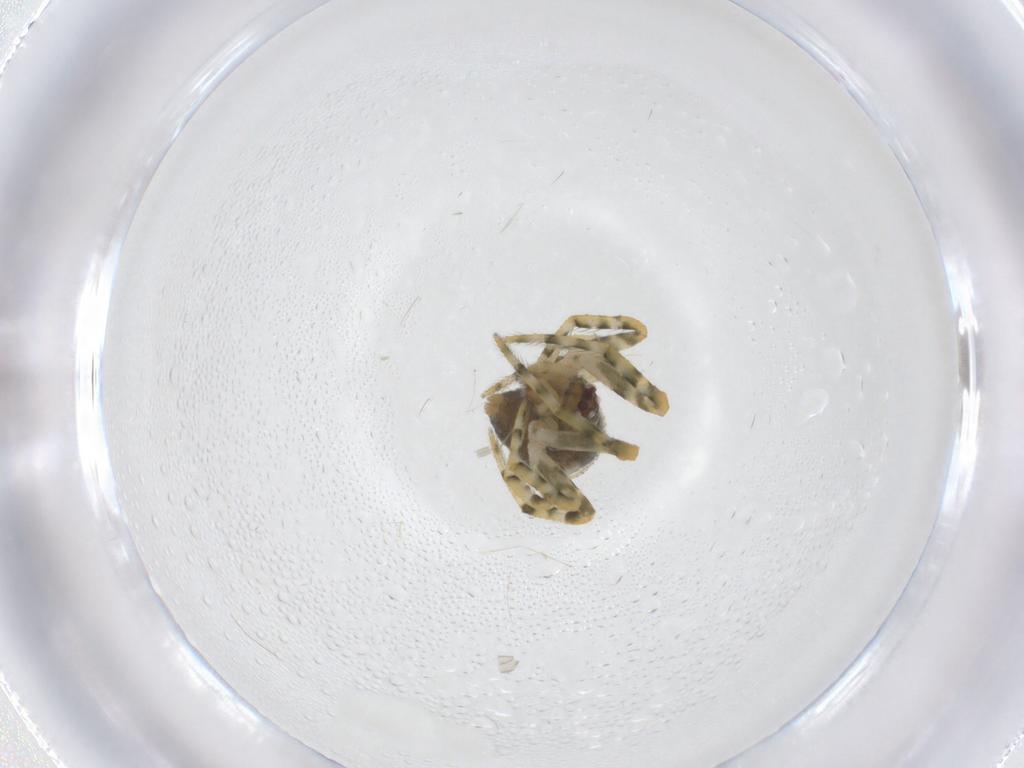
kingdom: Animalia
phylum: Arthropoda
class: Arachnida
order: Araneae
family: Theridiidae
